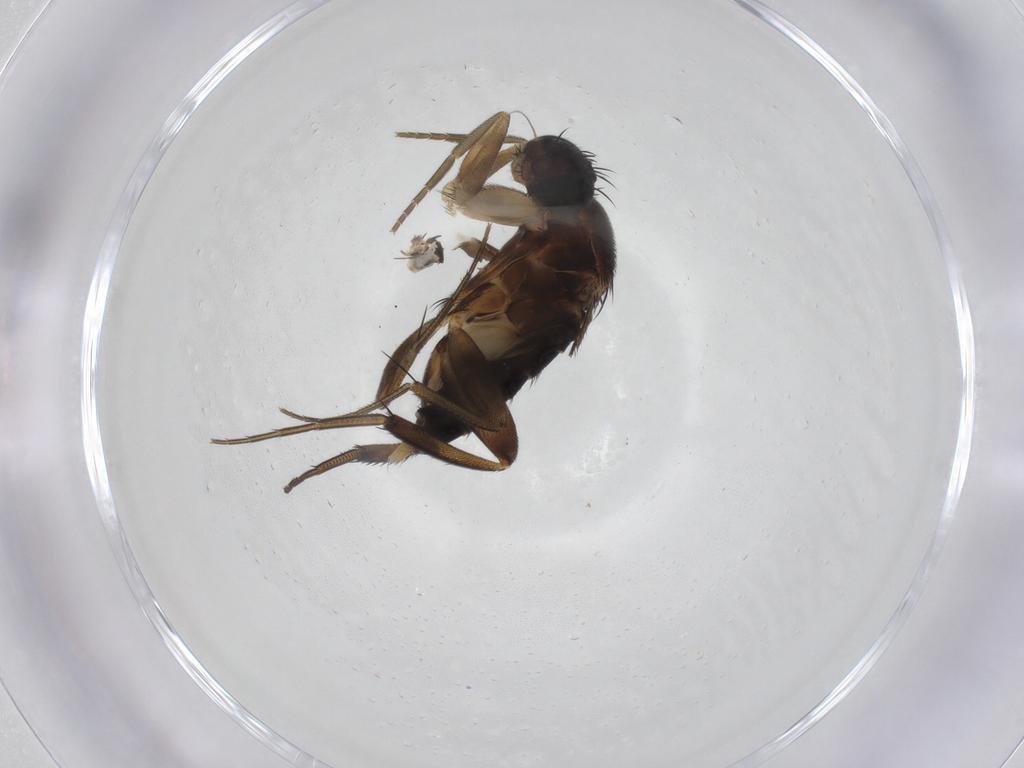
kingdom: Animalia
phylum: Arthropoda
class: Insecta
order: Diptera
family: Phoridae
